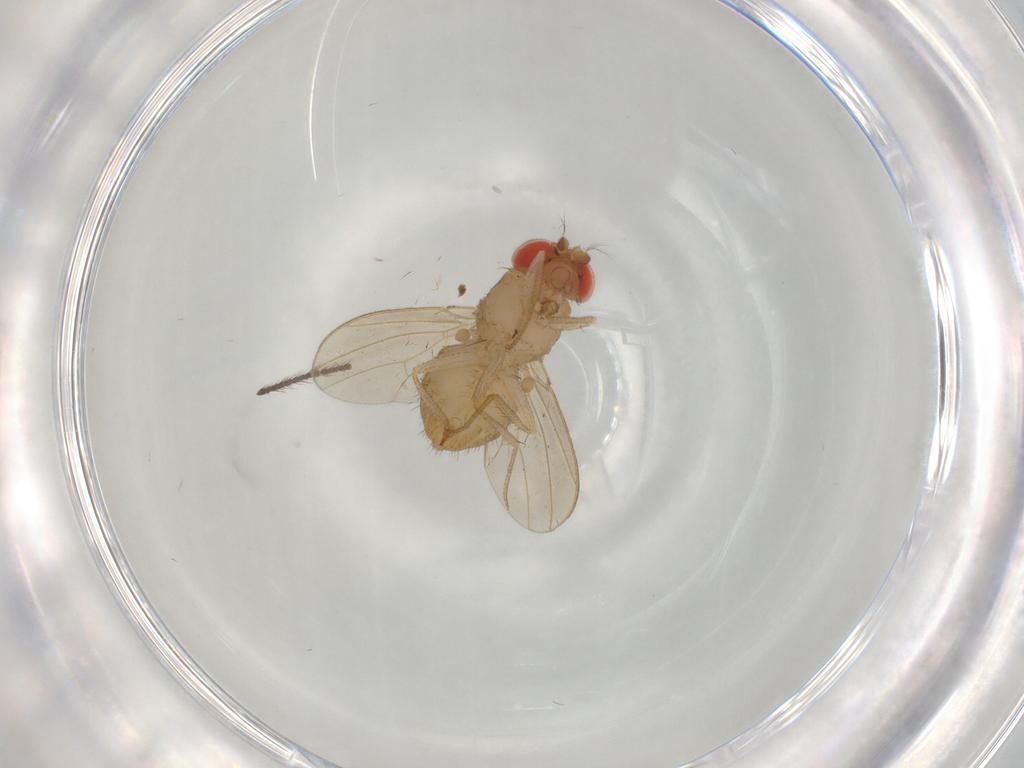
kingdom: Animalia
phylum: Arthropoda
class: Insecta
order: Diptera
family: Drosophilidae
